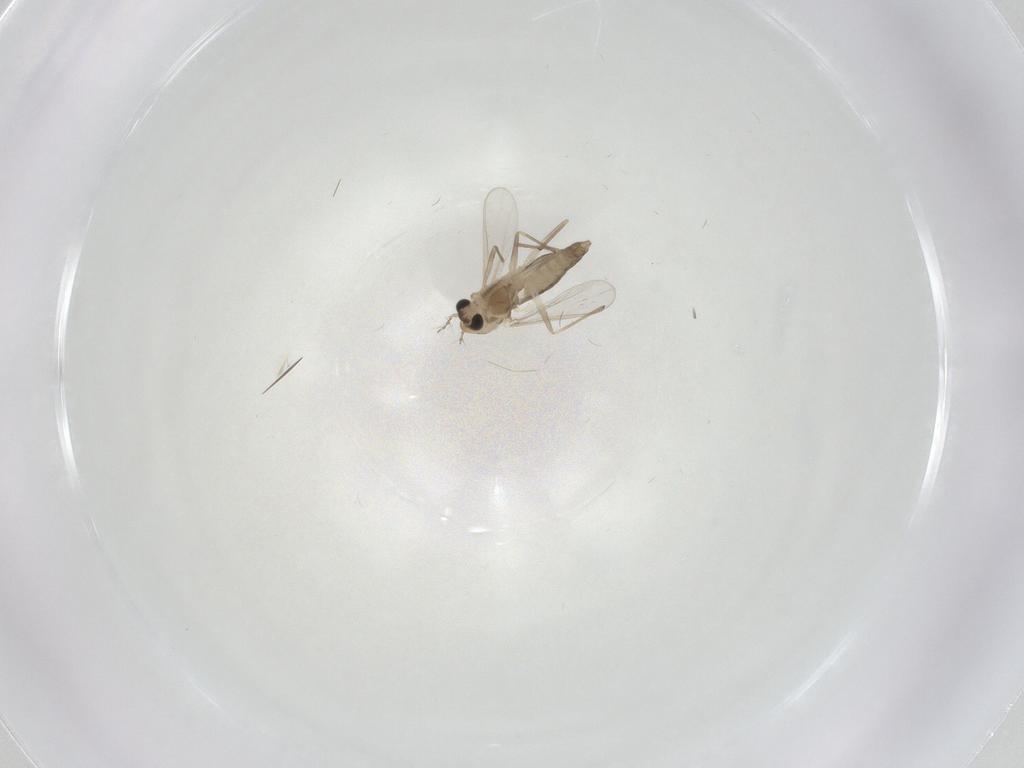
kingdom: Animalia
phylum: Arthropoda
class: Insecta
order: Diptera
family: Chironomidae
